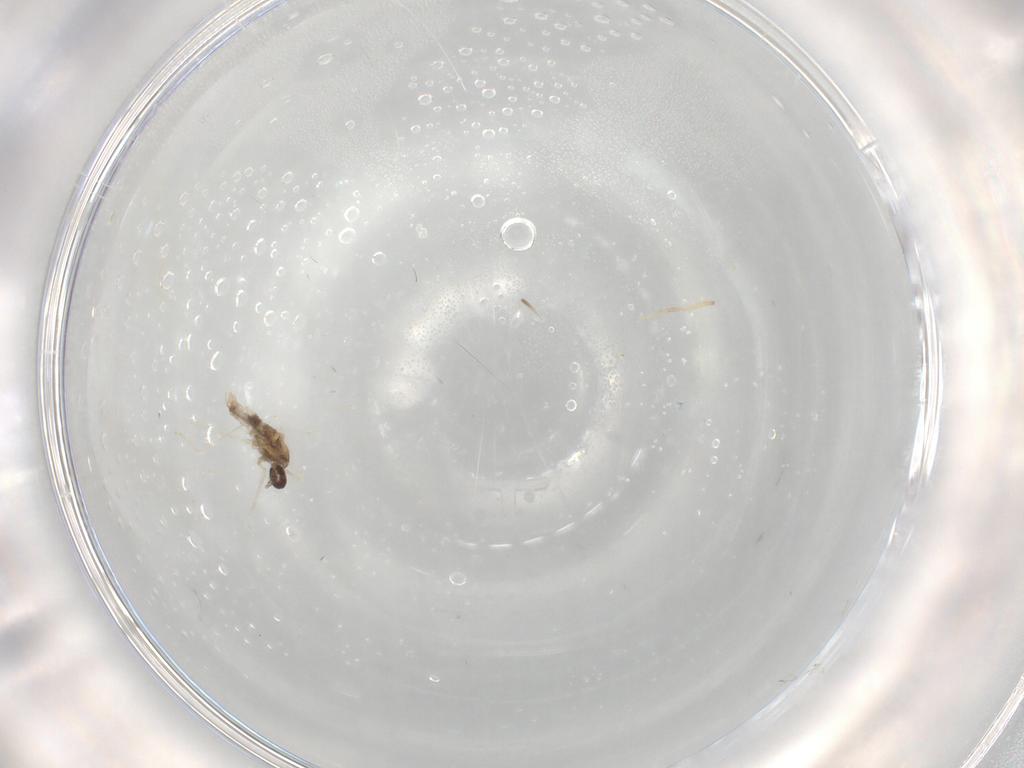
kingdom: Animalia
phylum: Arthropoda
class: Insecta
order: Diptera
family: Cecidomyiidae
